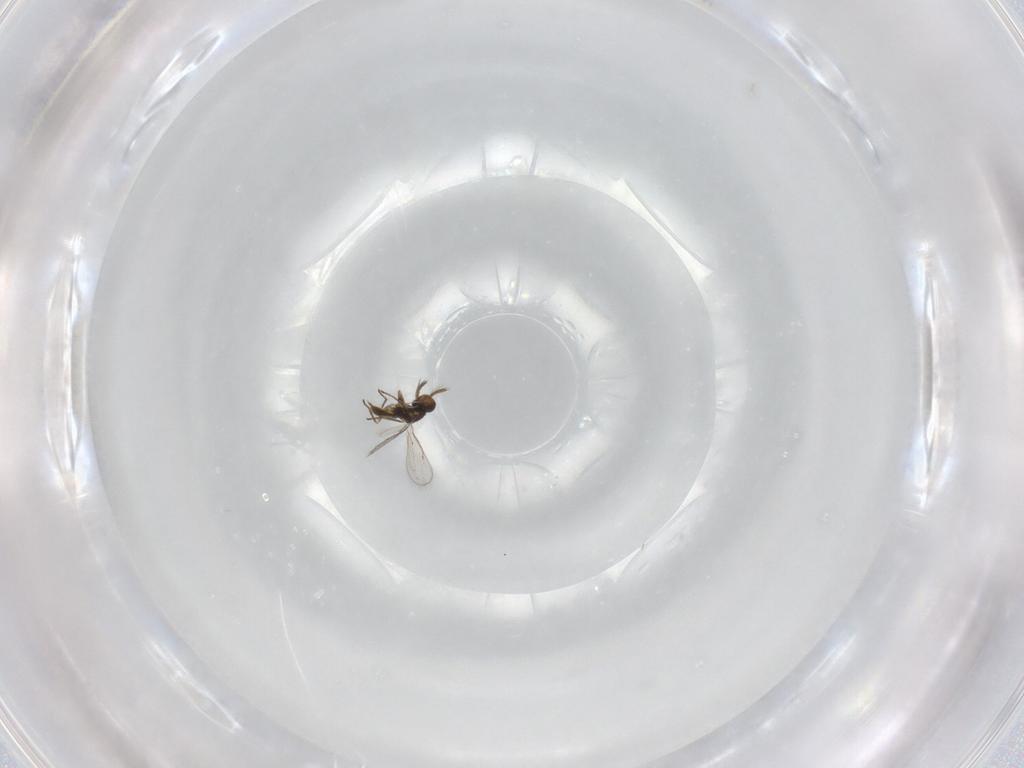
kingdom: Animalia
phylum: Arthropoda
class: Insecta
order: Hymenoptera
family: Eulophidae
